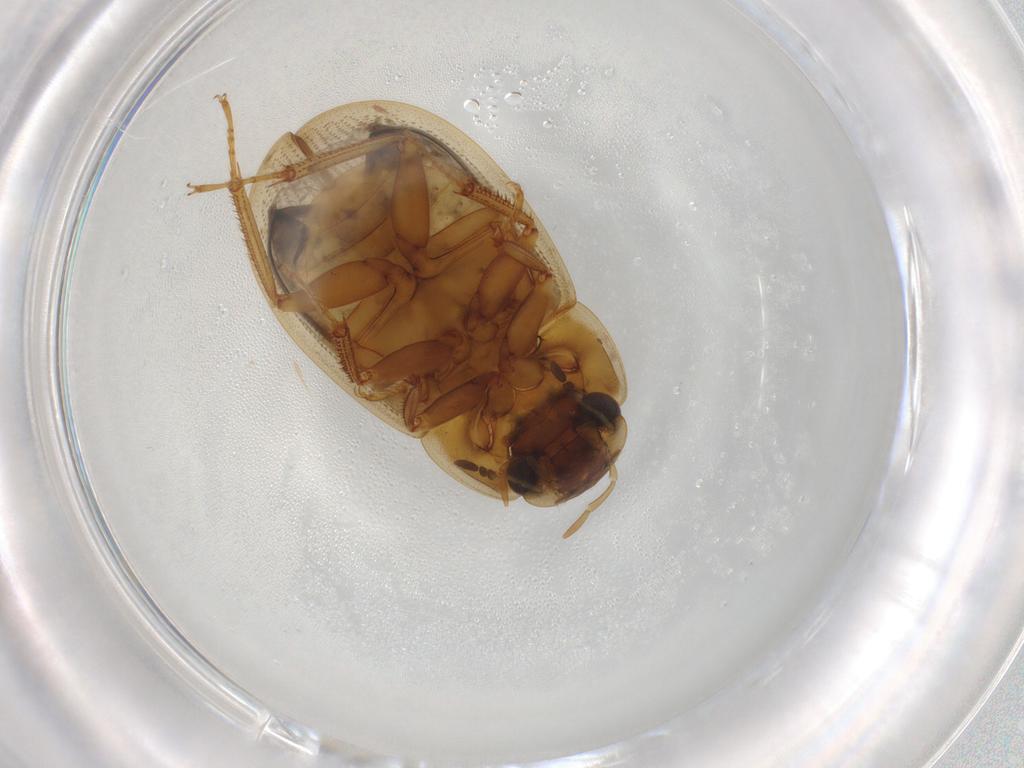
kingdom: Animalia
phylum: Arthropoda
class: Insecta
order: Coleoptera
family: Hydrophilidae
